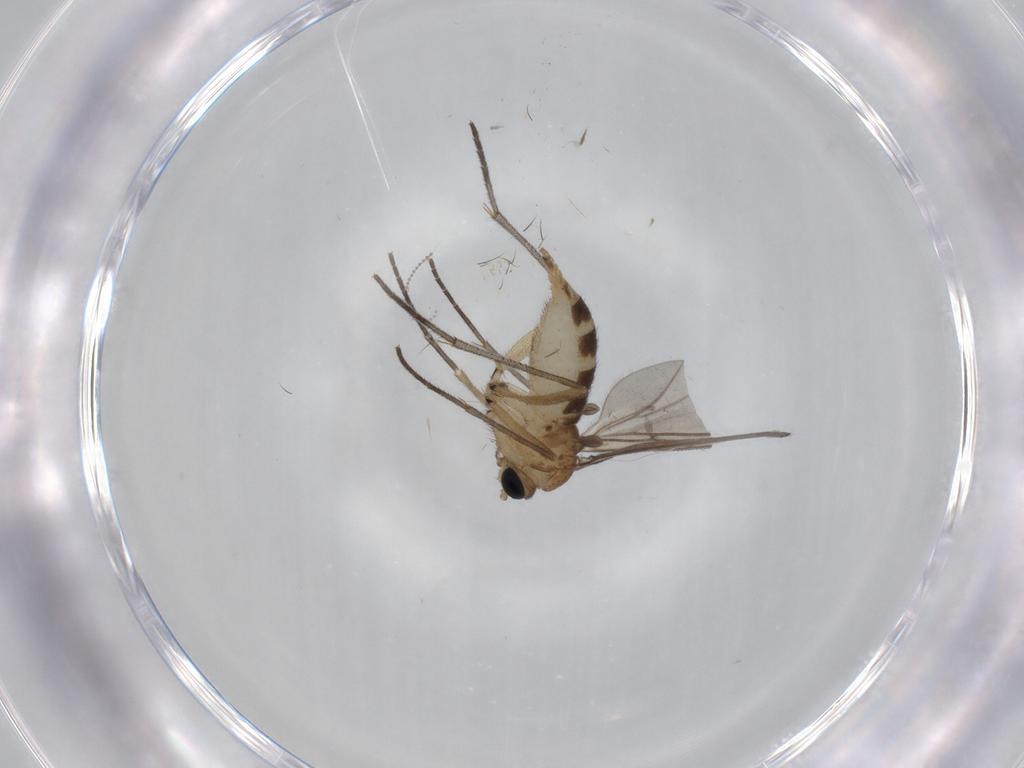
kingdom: Animalia
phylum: Arthropoda
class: Insecta
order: Diptera
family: Sciaridae
